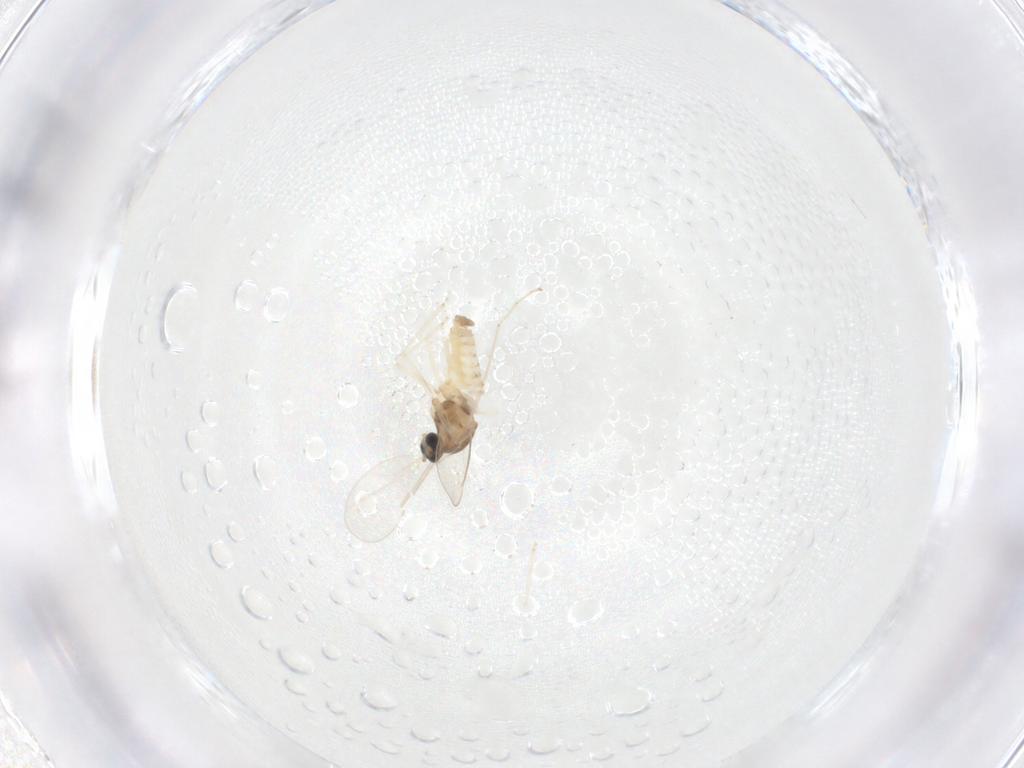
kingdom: Animalia
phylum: Arthropoda
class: Insecta
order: Diptera
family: Cecidomyiidae
